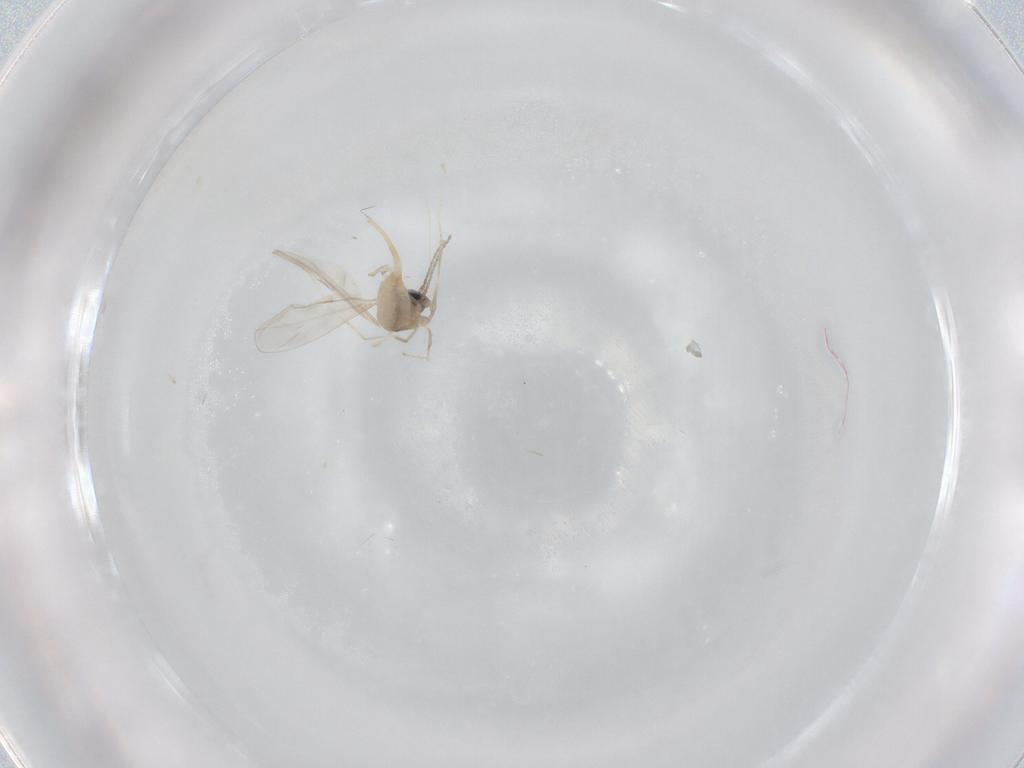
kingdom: Animalia
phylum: Arthropoda
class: Insecta
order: Diptera
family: Cecidomyiidae
